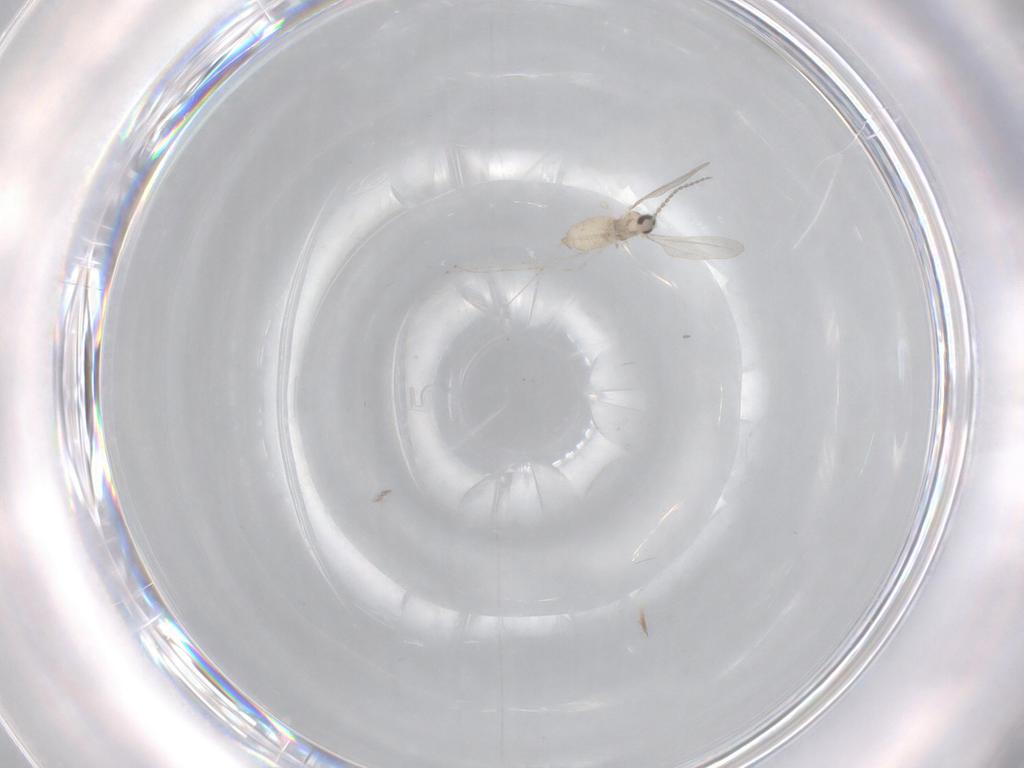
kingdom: Animalia
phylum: Arthropoda
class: Insecta
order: Diptera
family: Cecidomyiidae
